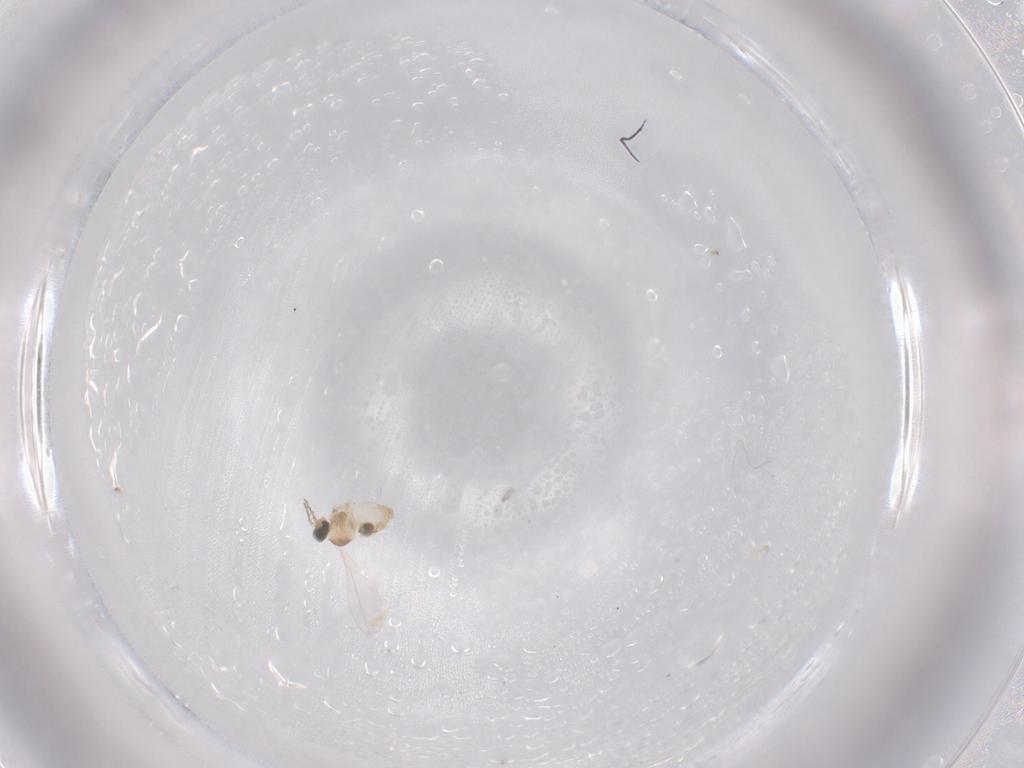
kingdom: Animalia
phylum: Arthropoda
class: Insecta
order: Diptera
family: Cecidomyiidae
